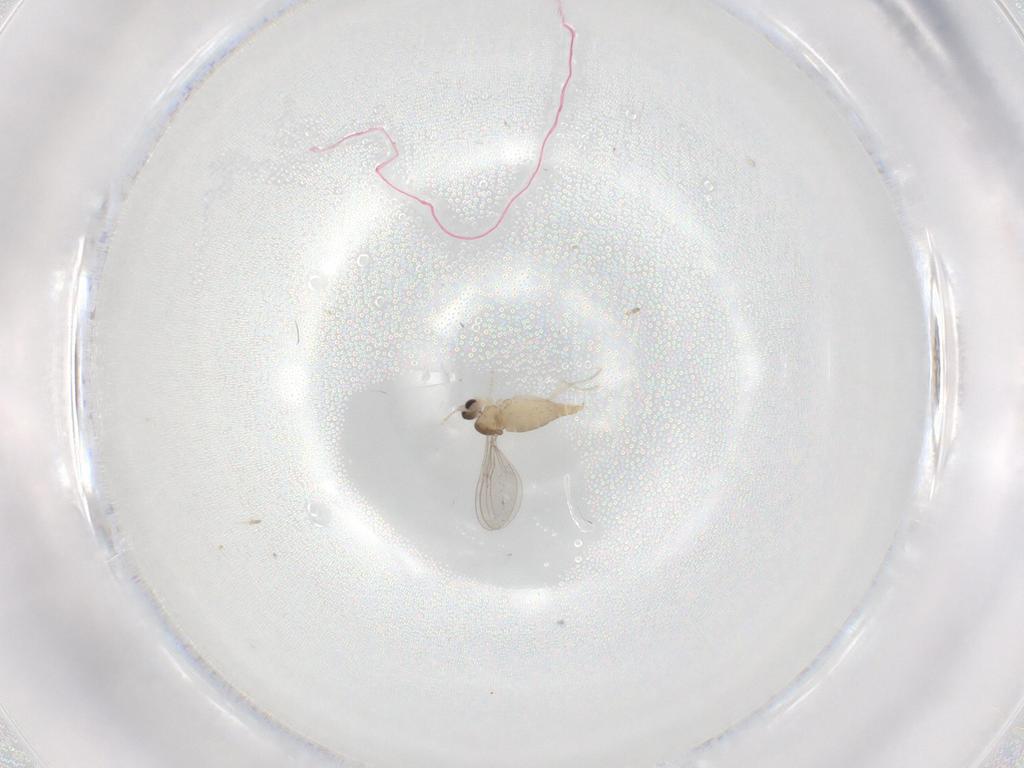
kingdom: Animalia
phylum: Arthropoda
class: Insecta
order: Diptera
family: Cecidomyiidae
